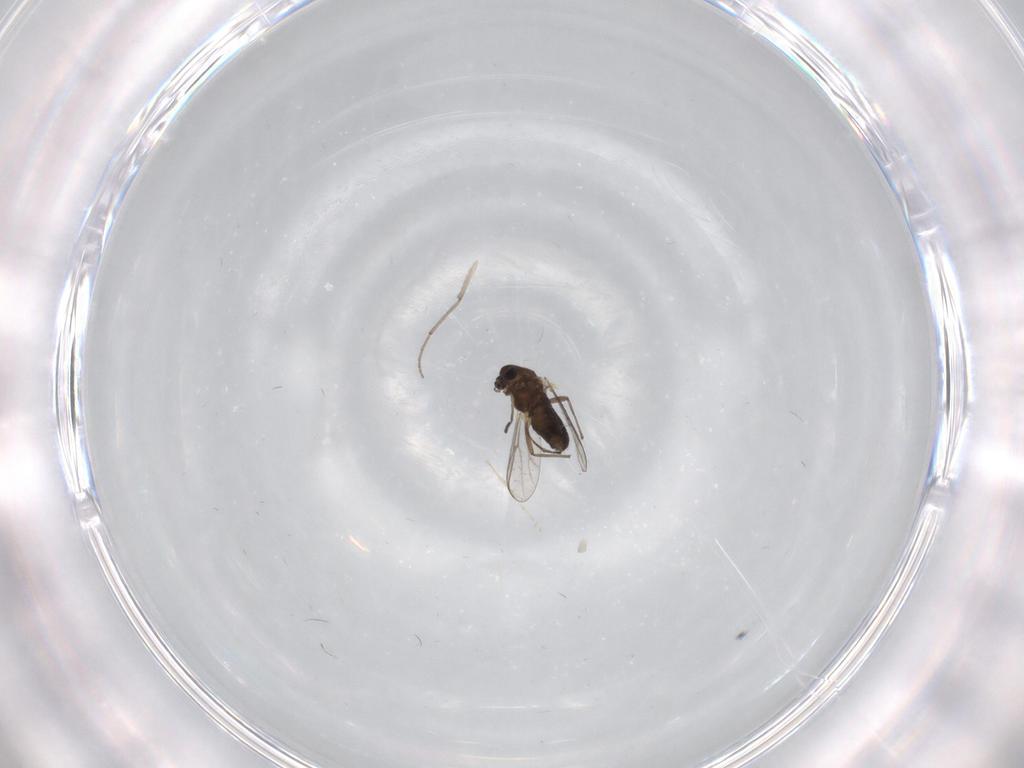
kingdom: Animalia
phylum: Arthropoda
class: Insecta
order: Diptera
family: Chironomidae
